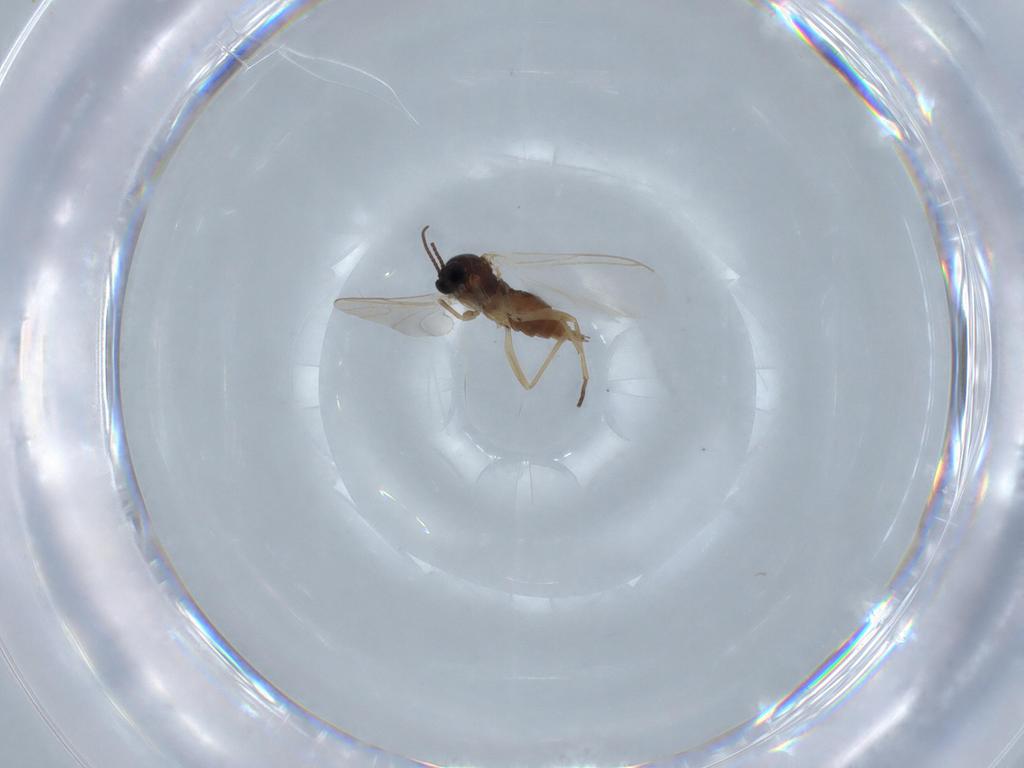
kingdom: Animalia
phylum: Arthropoda
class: Insecta
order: Diptera
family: Sciaridae
